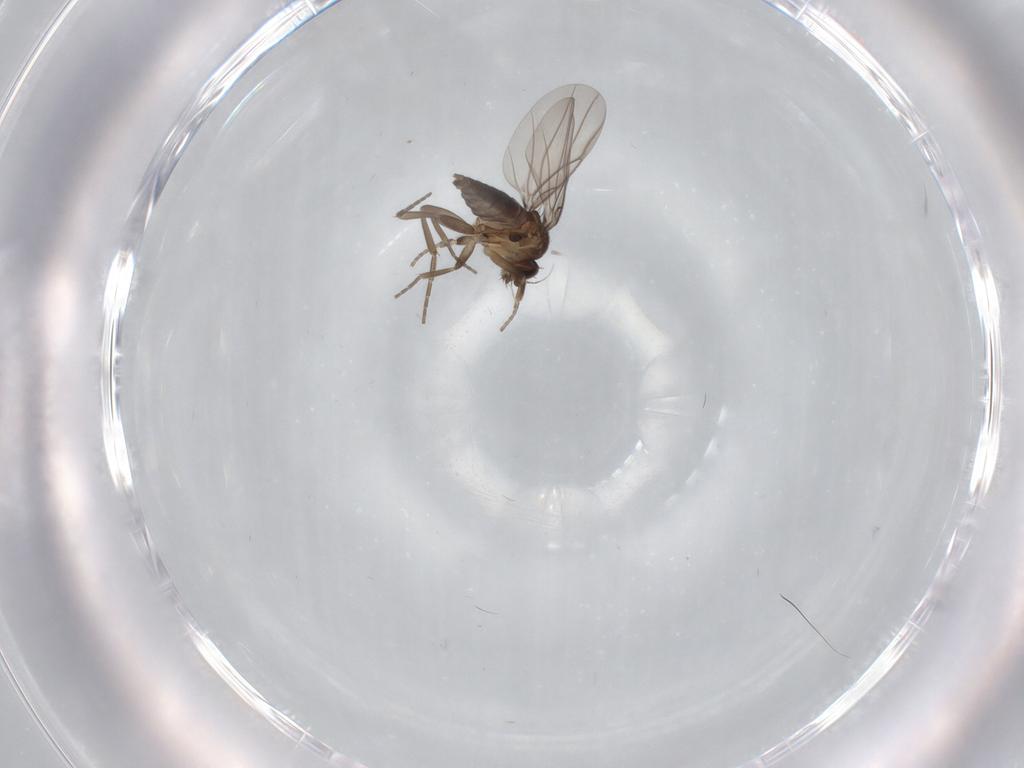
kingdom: Animalia
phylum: Arthropoda
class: Insecta
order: Diptera
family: Phoridae
